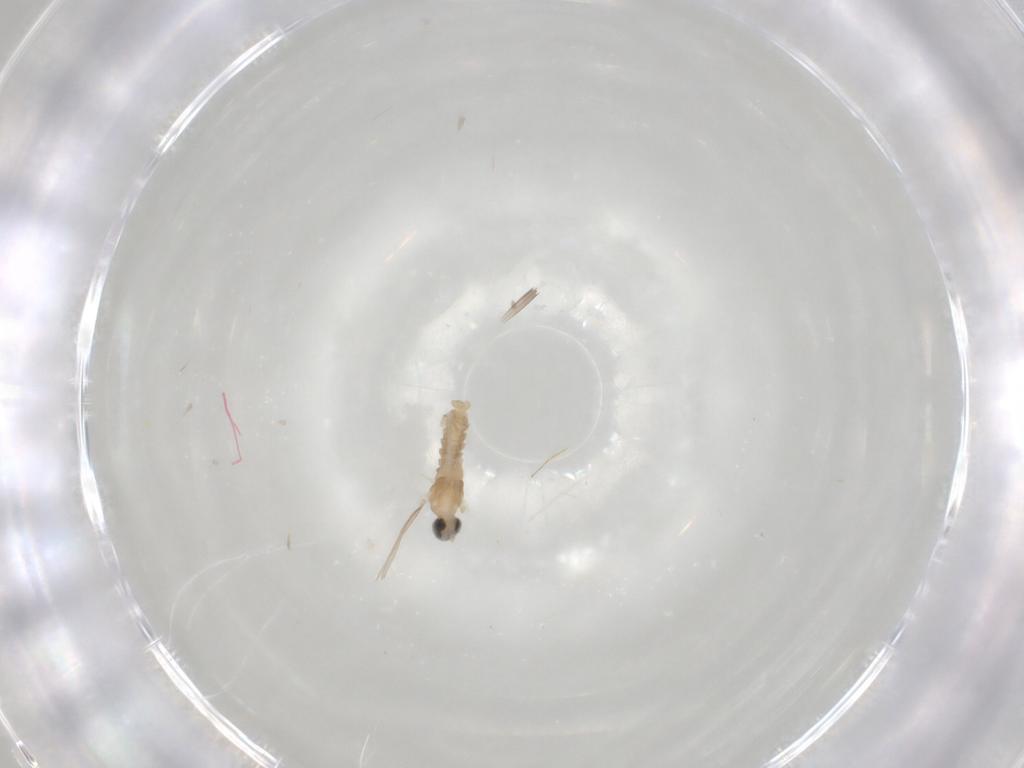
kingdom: Animalia
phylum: Arthropoda
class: Insecta
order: Diptera
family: Cecidomyiidae
